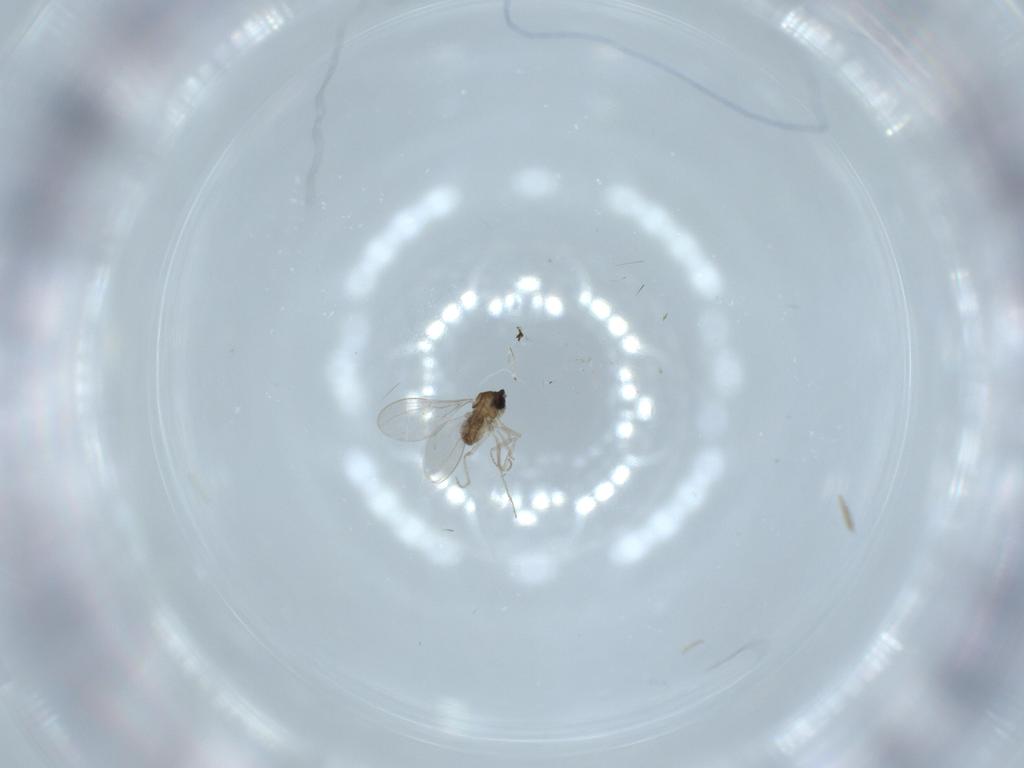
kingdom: Animalia
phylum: Arthropoda
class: Insecta
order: Diptera
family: Cecidomyiidae
